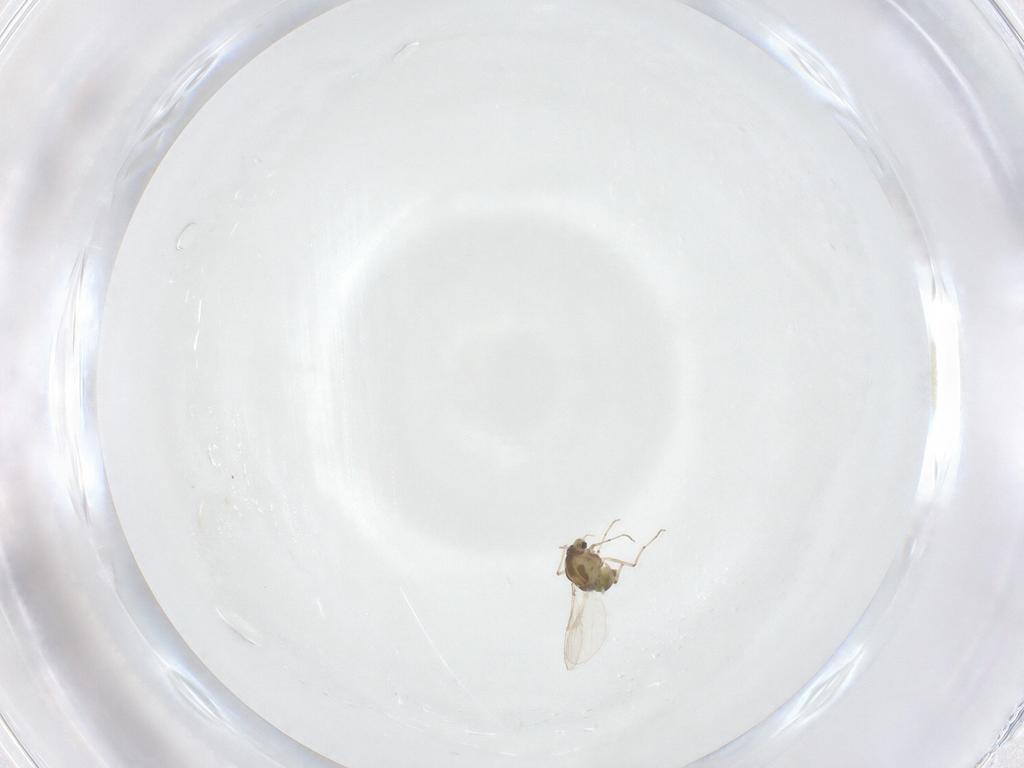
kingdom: Animalia
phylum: Arthropoda
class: Insecta
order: Diptera
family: Chironomidae
